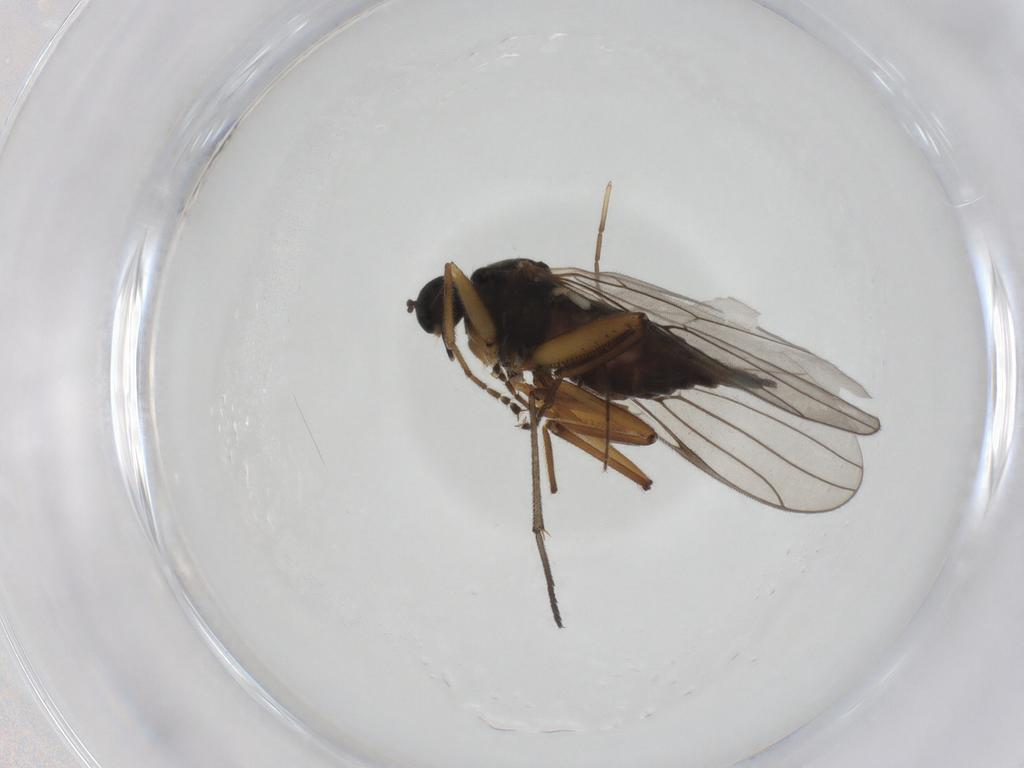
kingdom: Animalia
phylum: Arthropoda
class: Insecta
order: Diptera
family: Hybotidae
